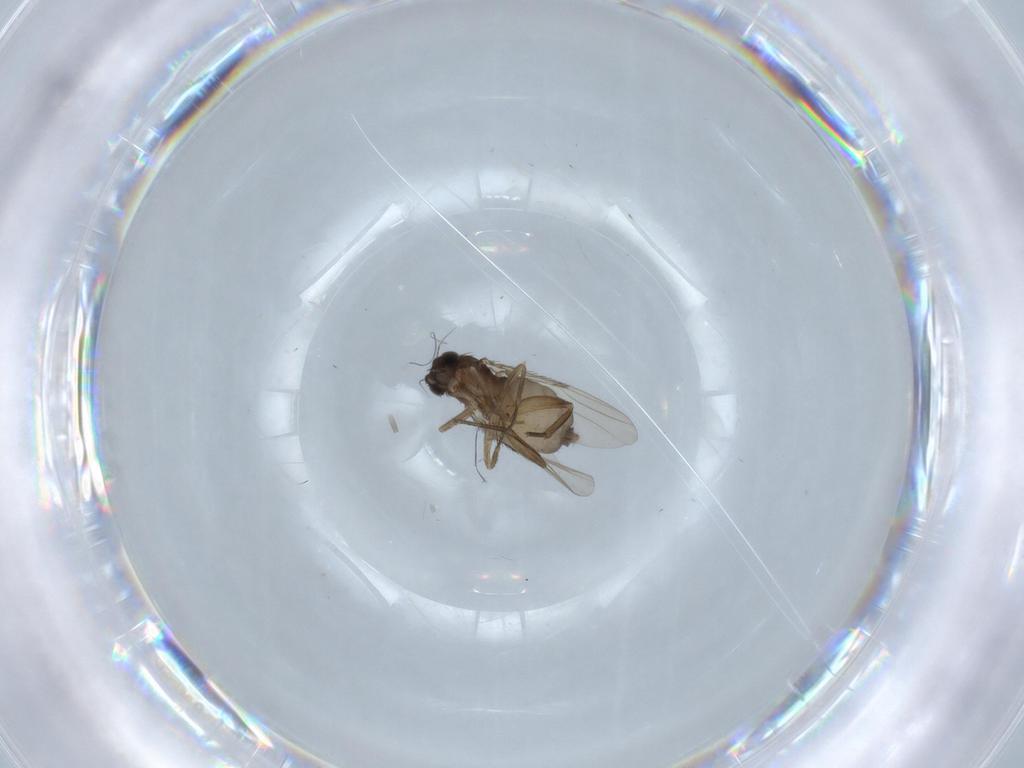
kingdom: Animalia
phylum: Arthropoda
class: Insecta
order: Diptera
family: Phoridae
